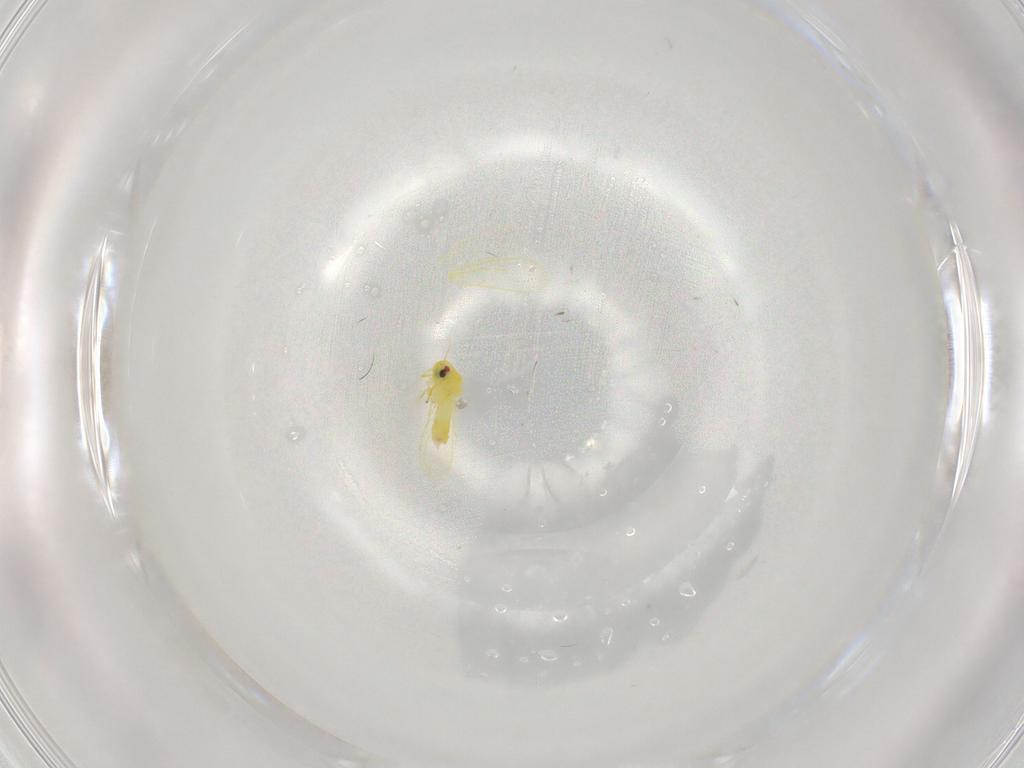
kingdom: Animalia
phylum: Arthropoda
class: Insecta
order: Hemiptera
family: Aleyrodidae
